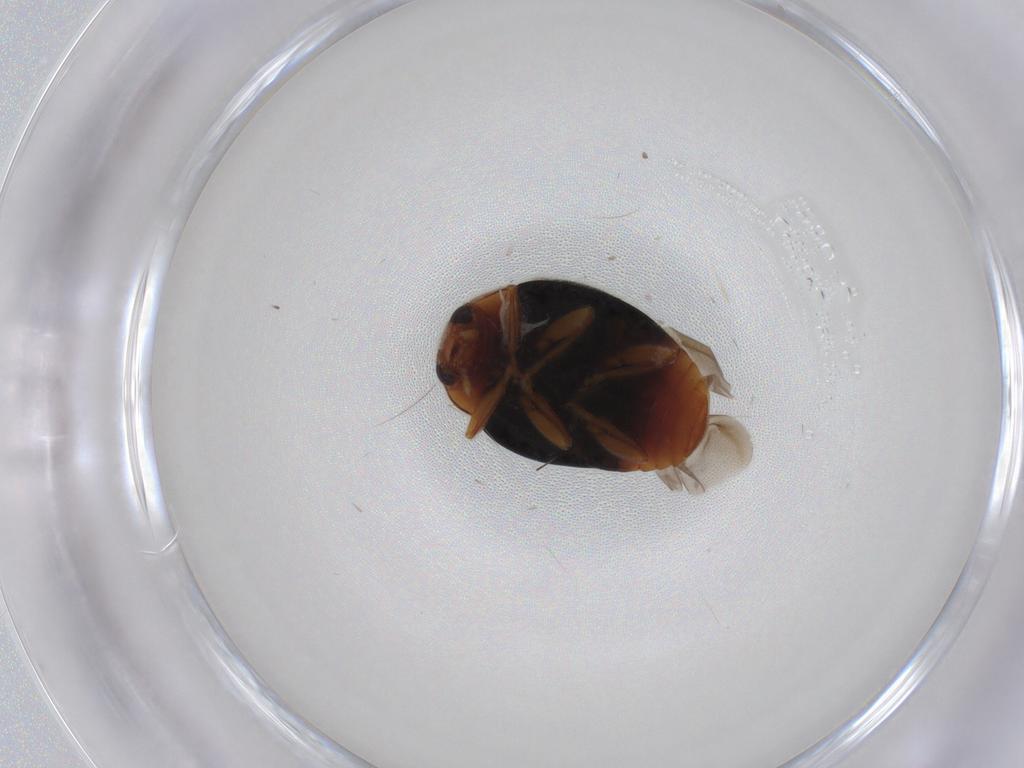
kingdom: Animalia
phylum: Arthropoda
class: Insecta
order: Coleoptera
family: Coccinellidae
